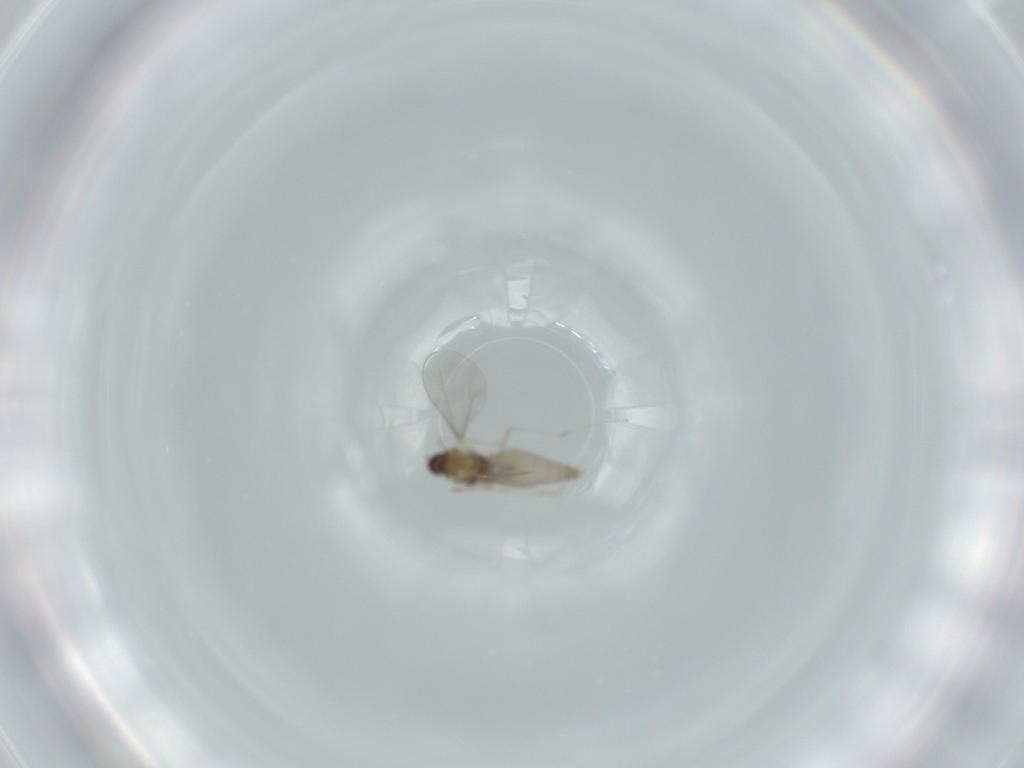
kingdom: Animalia
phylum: Arthropoda
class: Insecta
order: Diptera
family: Cecidomyiidae
